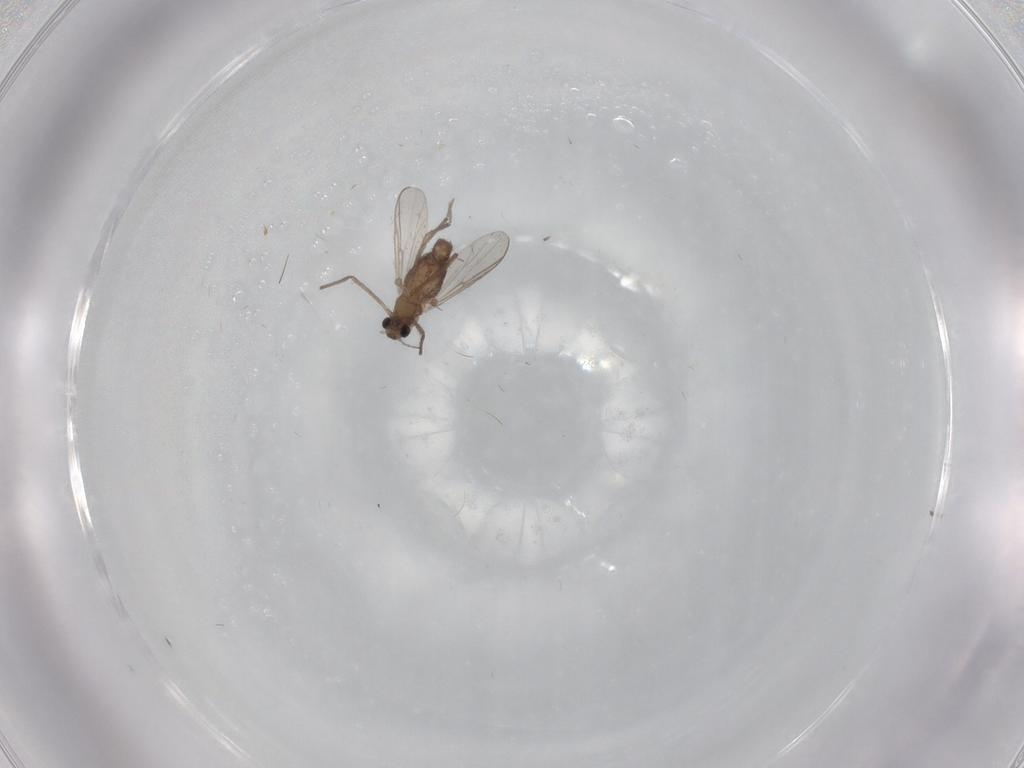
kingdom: Animalia
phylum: Arthropoda
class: Insecta
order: Diptera
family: Chironomidae
